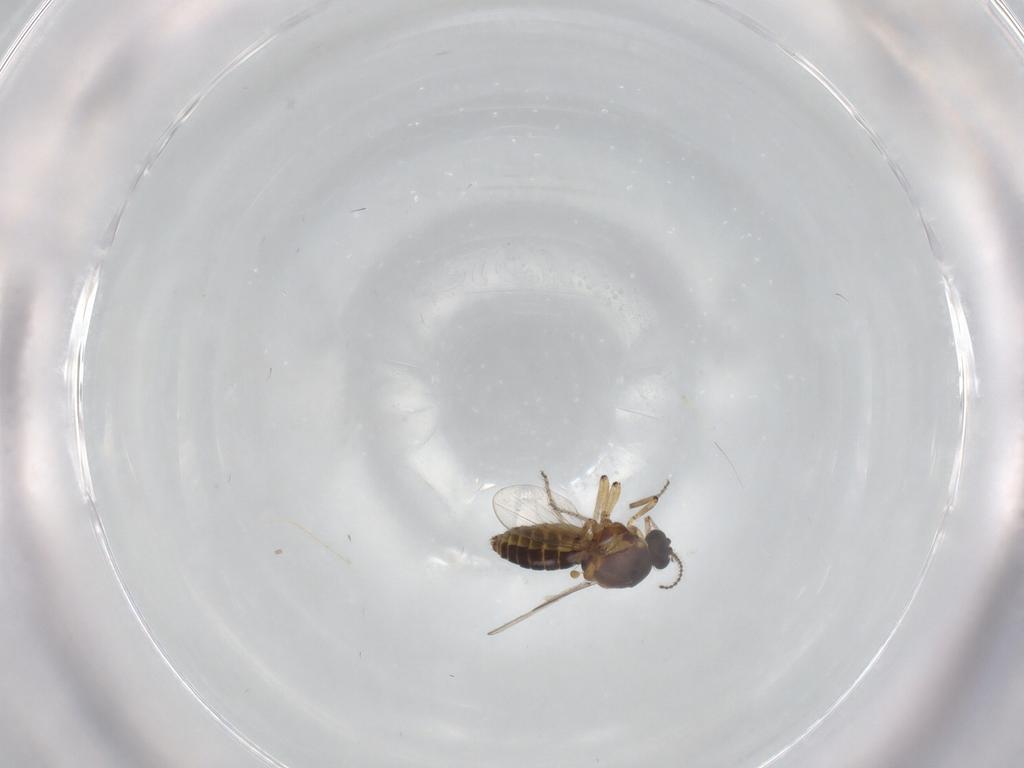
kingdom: Animalia
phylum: Arthropoda
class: Insecta
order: Diptera
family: Ceratopogonidae
